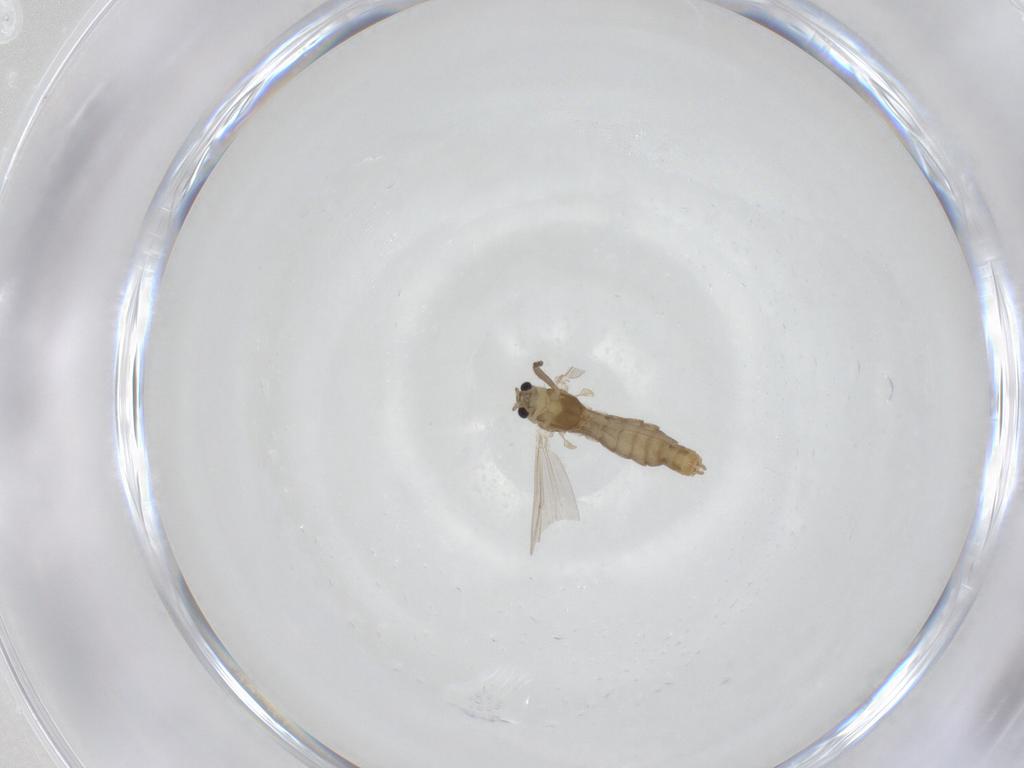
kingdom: Animalia
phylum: Arthropoda
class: Insecta
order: Diptera
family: Chironomidae
